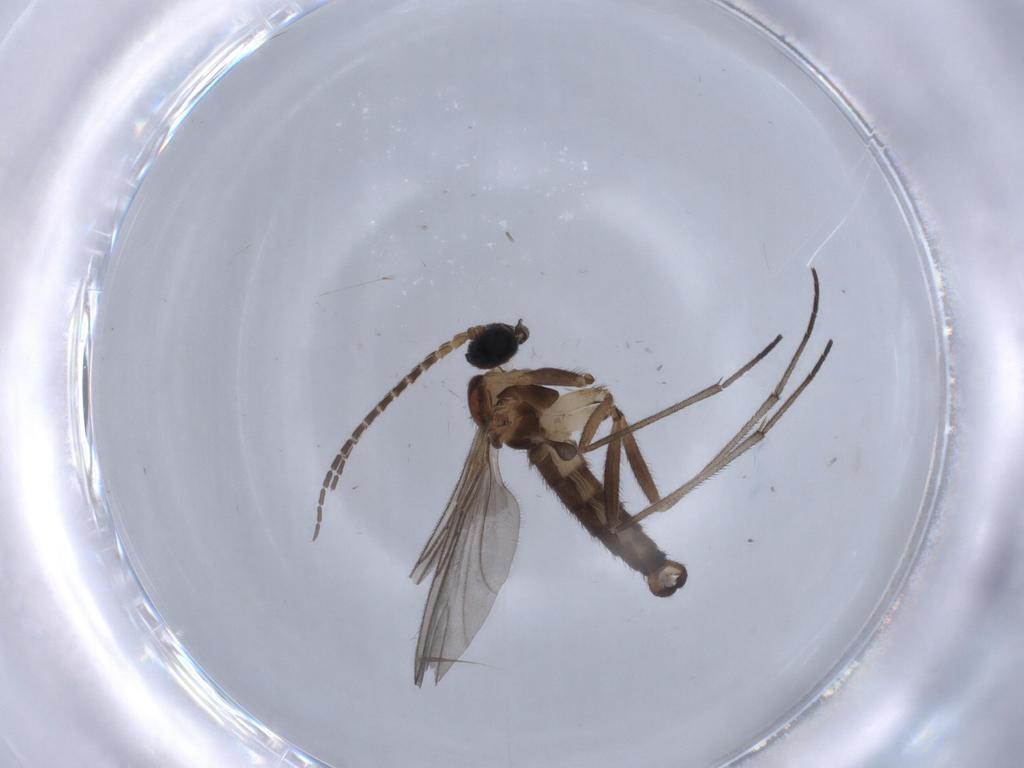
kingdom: Animalia
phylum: Arthropoda
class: Insecta
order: Diptera
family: Sciaridae
